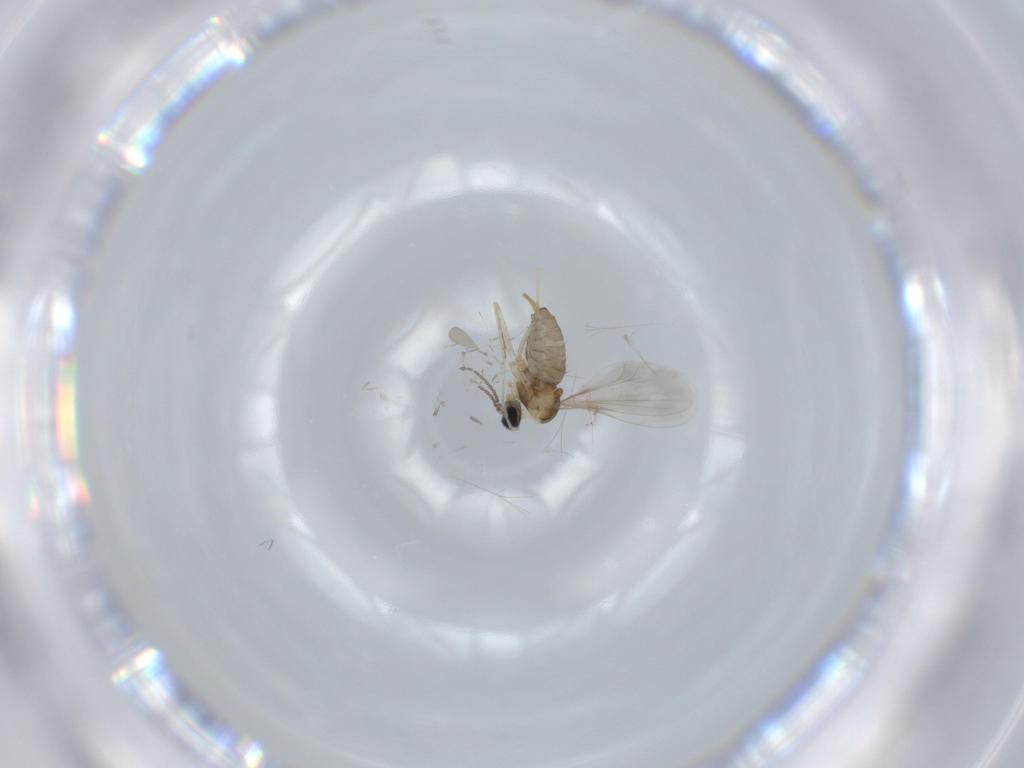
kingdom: Animalia
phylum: Arthropoda
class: Insecta
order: Diptera
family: Cecidomyiidae
